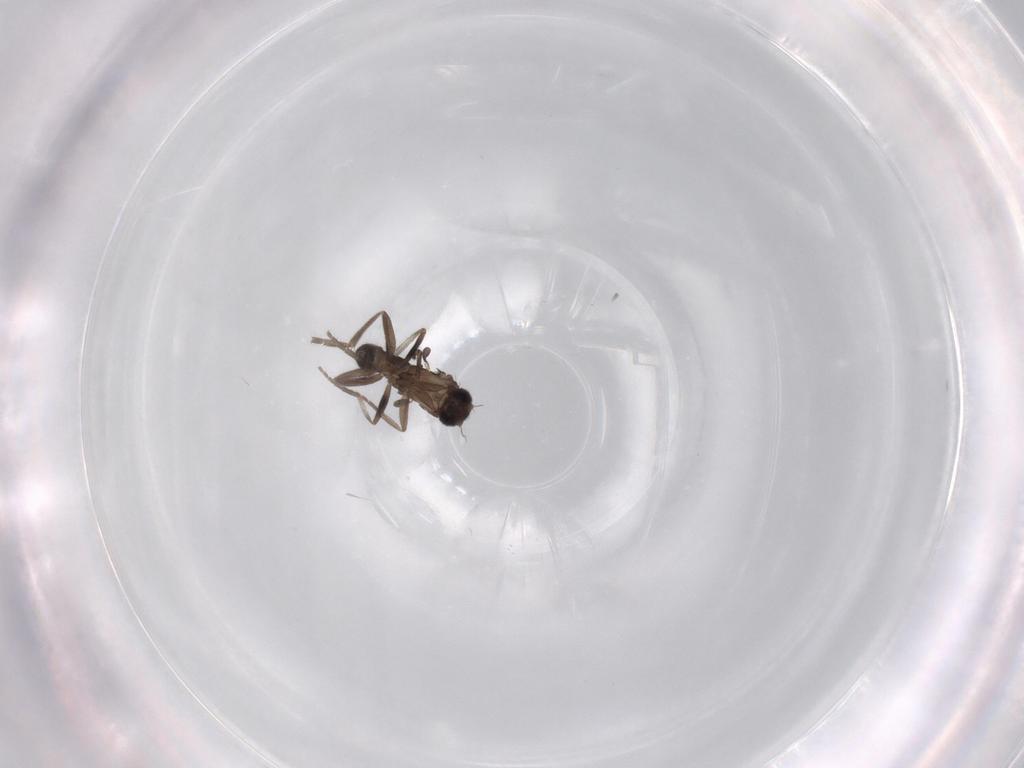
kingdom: Animalia
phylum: Arthropoda
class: Insecta
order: Diptera
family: Phoridae
